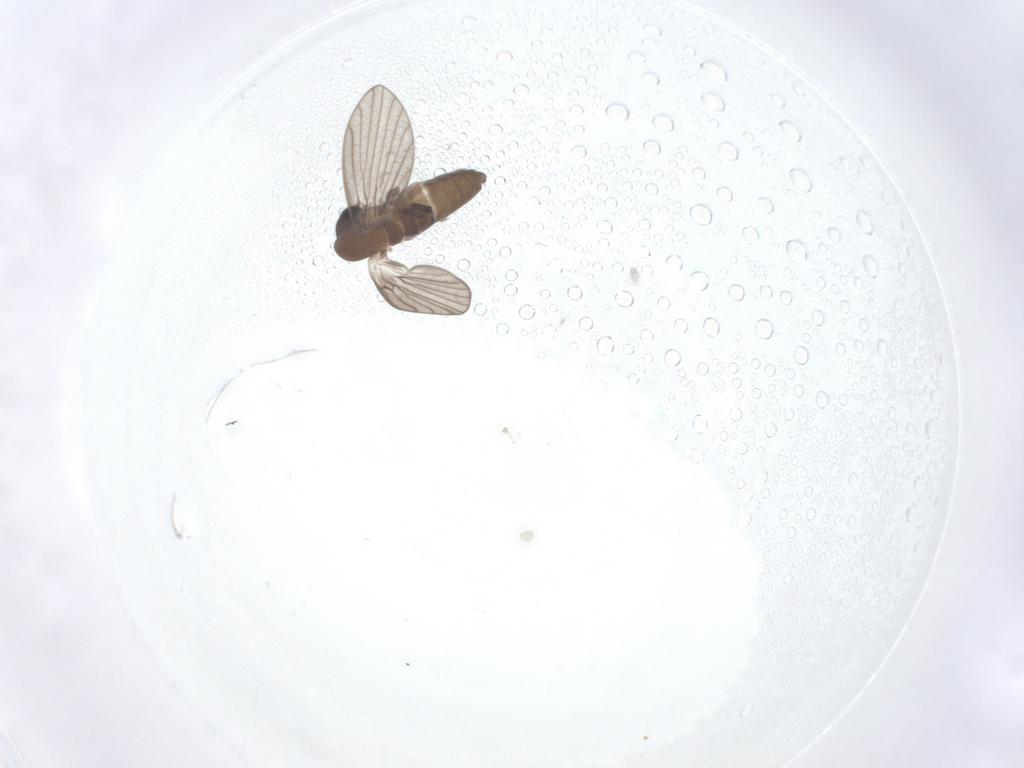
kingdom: Animalia
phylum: Arthropoda
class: Insecta
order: Diptera
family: Psychodidae
